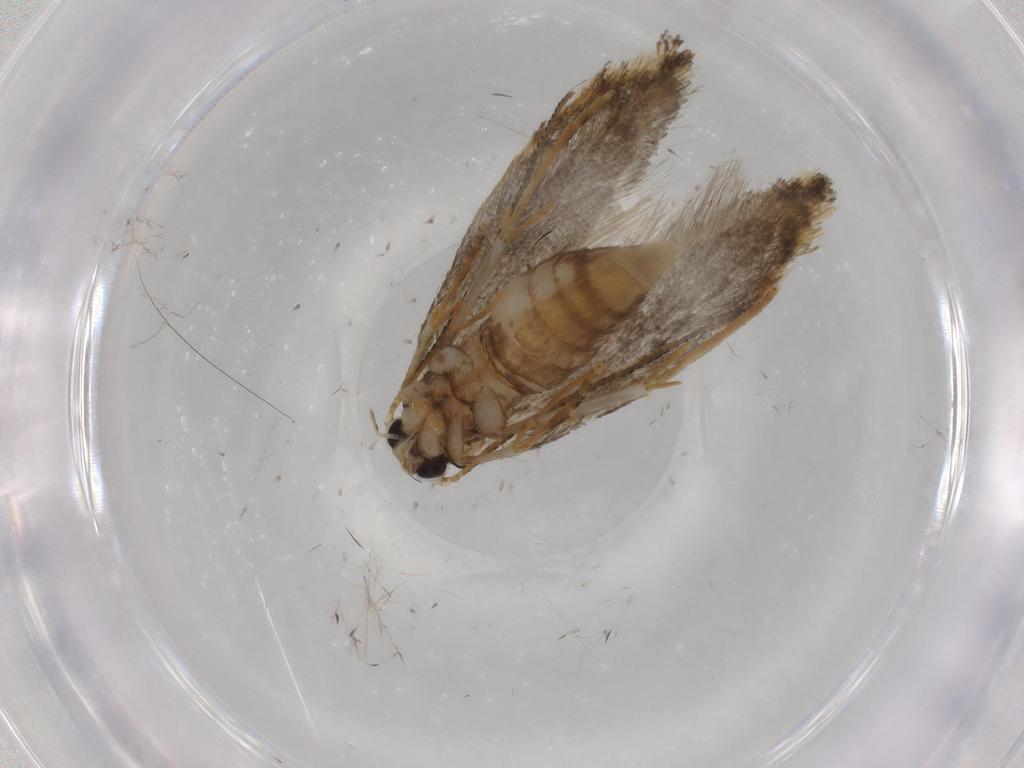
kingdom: Animalia
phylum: Arthropoda
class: Insecta
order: Lepidoptera
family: Tineidae
